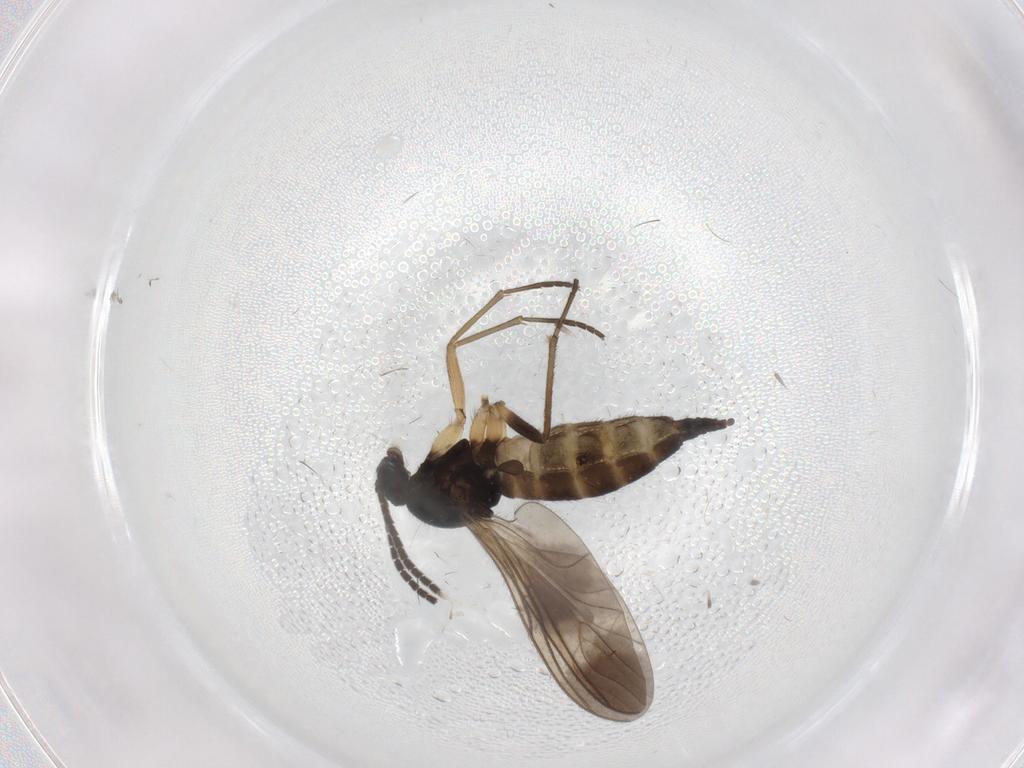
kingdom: Animalia
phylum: Arthropoda
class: Insecta
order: Diptera
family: Sciaridae
